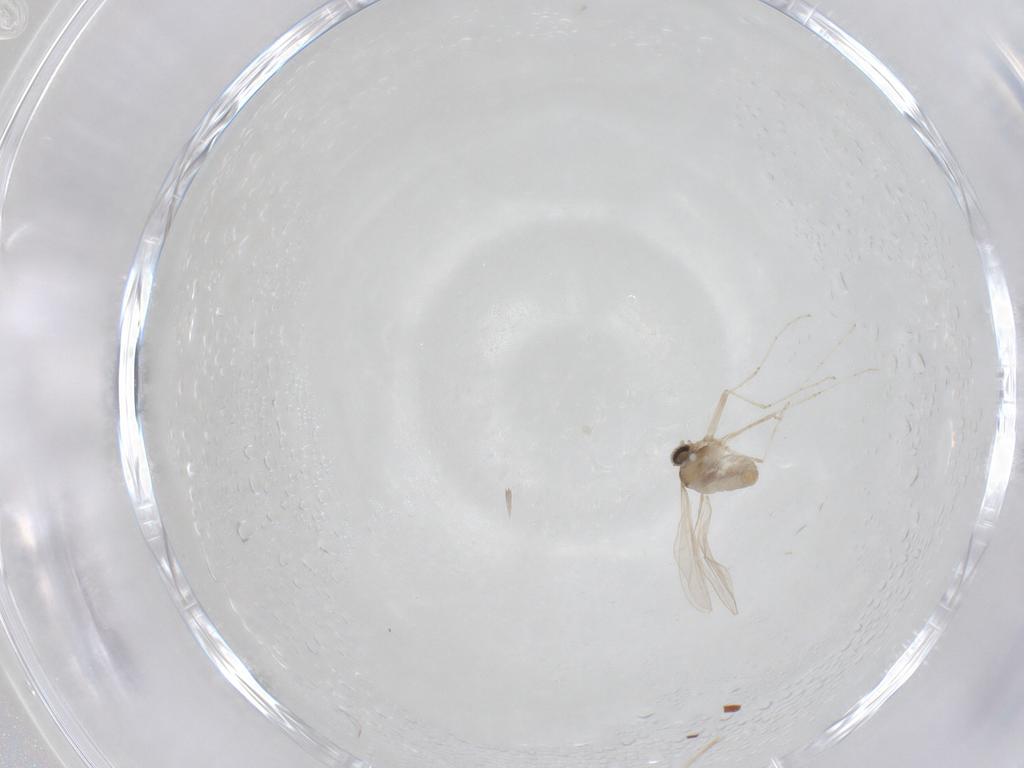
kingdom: Animalia
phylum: Arthropoda
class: Insecta
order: Diptera
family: Cecidomyiidae
